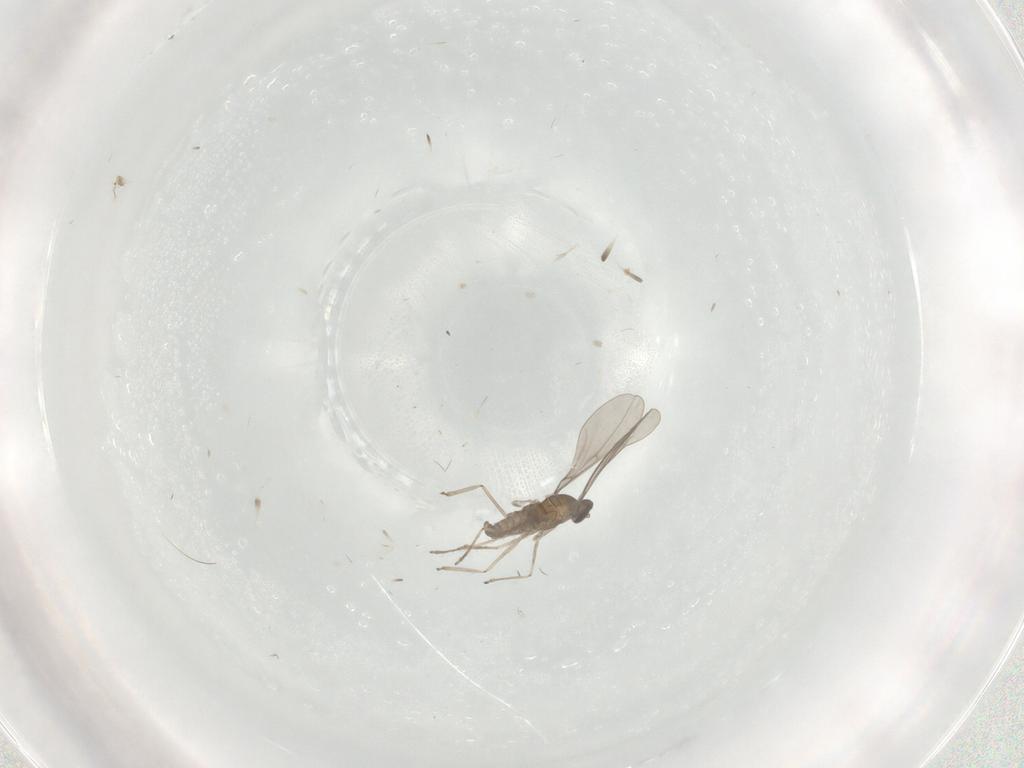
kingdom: Animalia
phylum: Arthropoda
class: Insecta
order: Diptera
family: Cecidomyiidae
